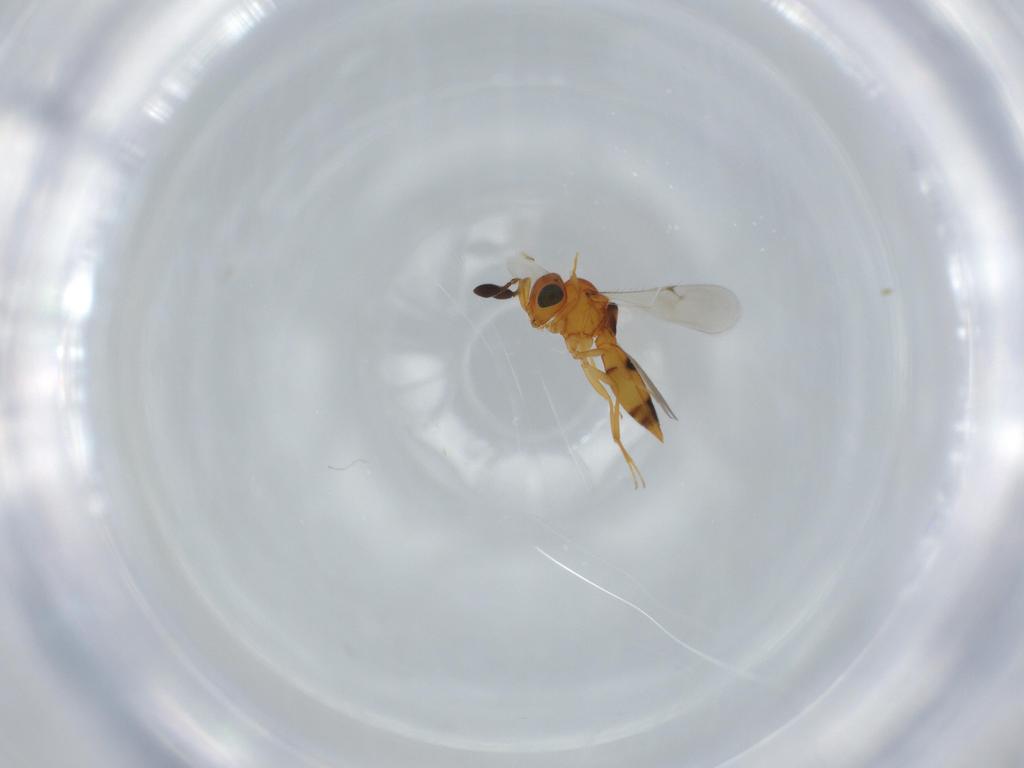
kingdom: Animalia
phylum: Arthropoda
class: Insecta
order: Hymenoptera
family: Scelionidae
